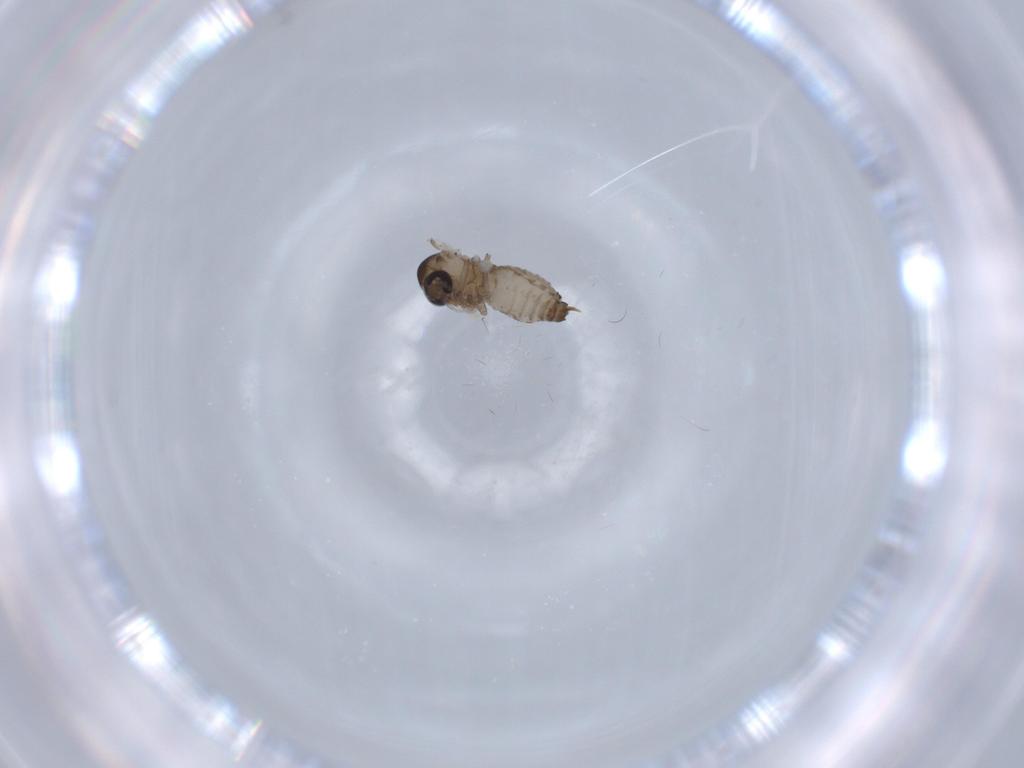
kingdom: Animalia
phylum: Arthropoda
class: Insecta
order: Diptera
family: Psychodidae
